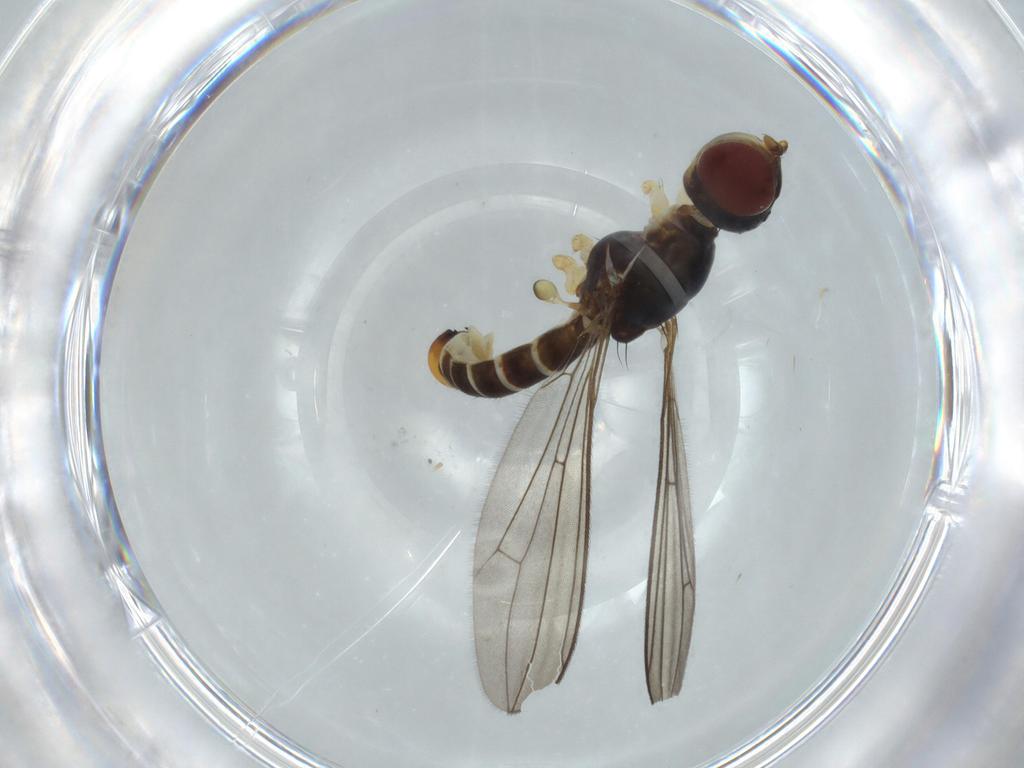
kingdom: Animalia
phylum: Arthropoda
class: Insecta
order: Diptera
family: Micropezidae
